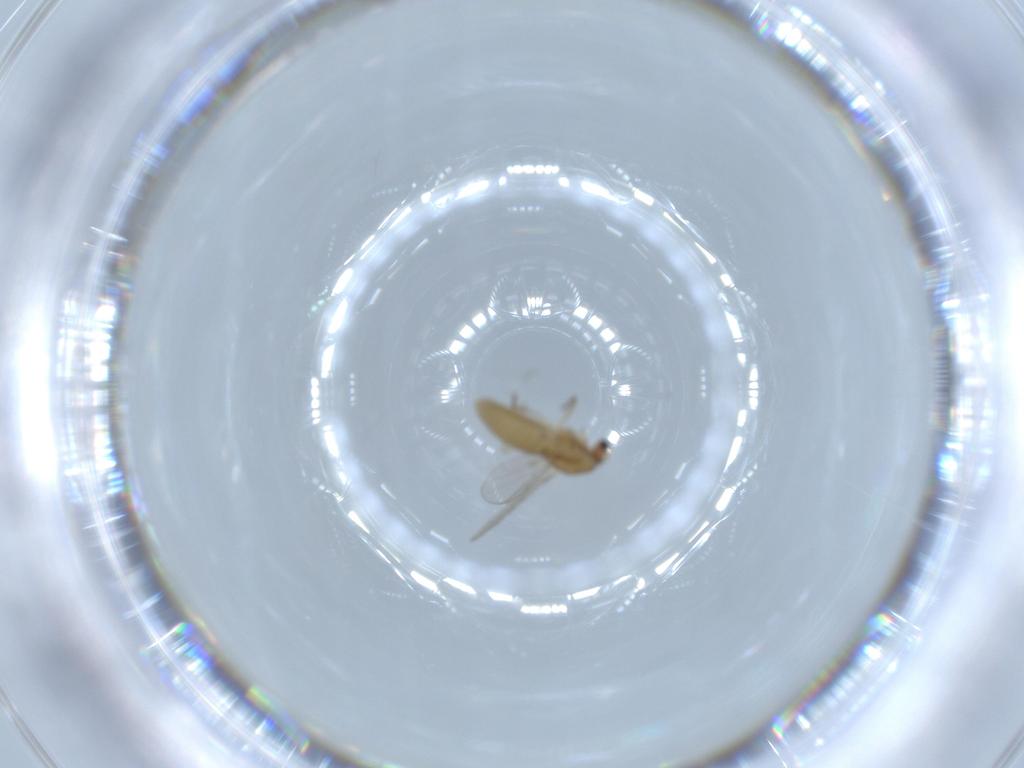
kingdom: Animalia
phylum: Arthropoda
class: Insecta
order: Diptera
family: Chironomidae
